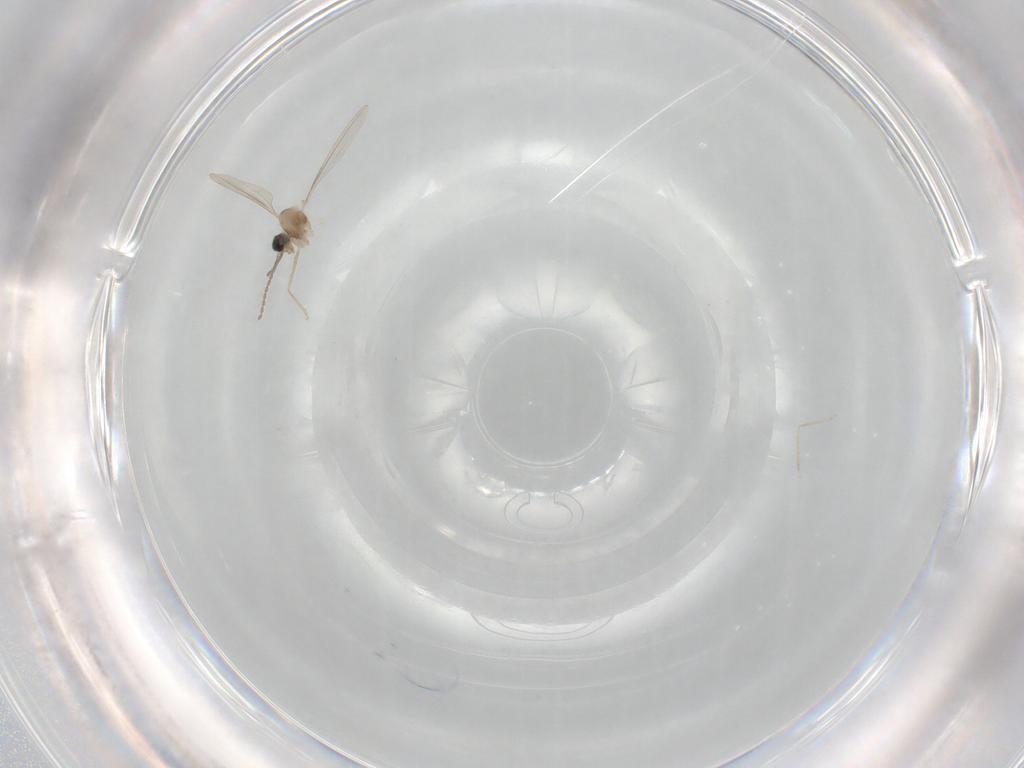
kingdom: Animalia
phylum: Arthropoda
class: Insecta
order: Diptera
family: Cecidomyiidae
